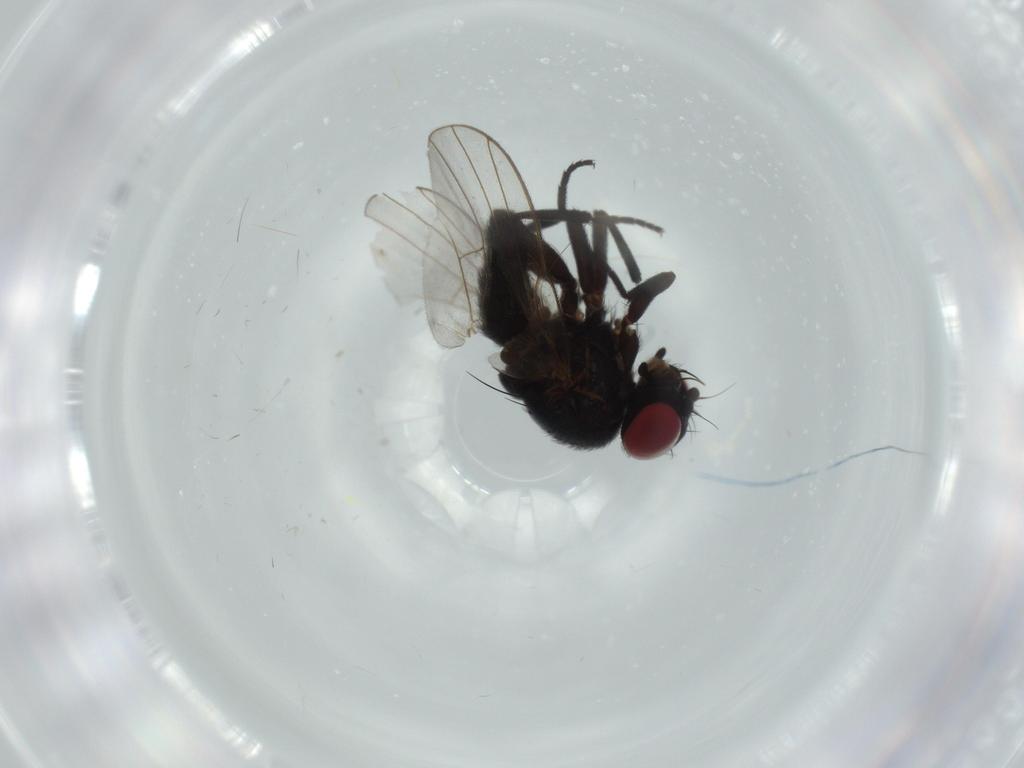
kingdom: Animalia
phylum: Arthropoda
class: Insecta
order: Diptera
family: Agromyzidae
